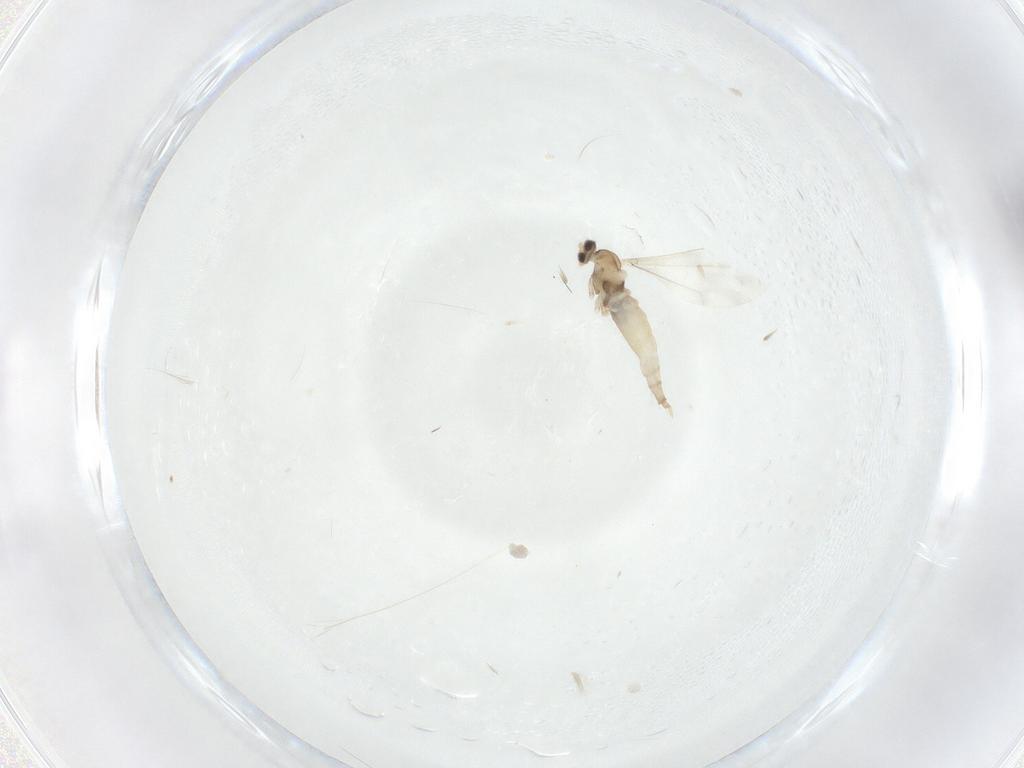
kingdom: Animalia
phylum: Arthropoda
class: Insecta
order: Diptera
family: Cecidomyiidae
